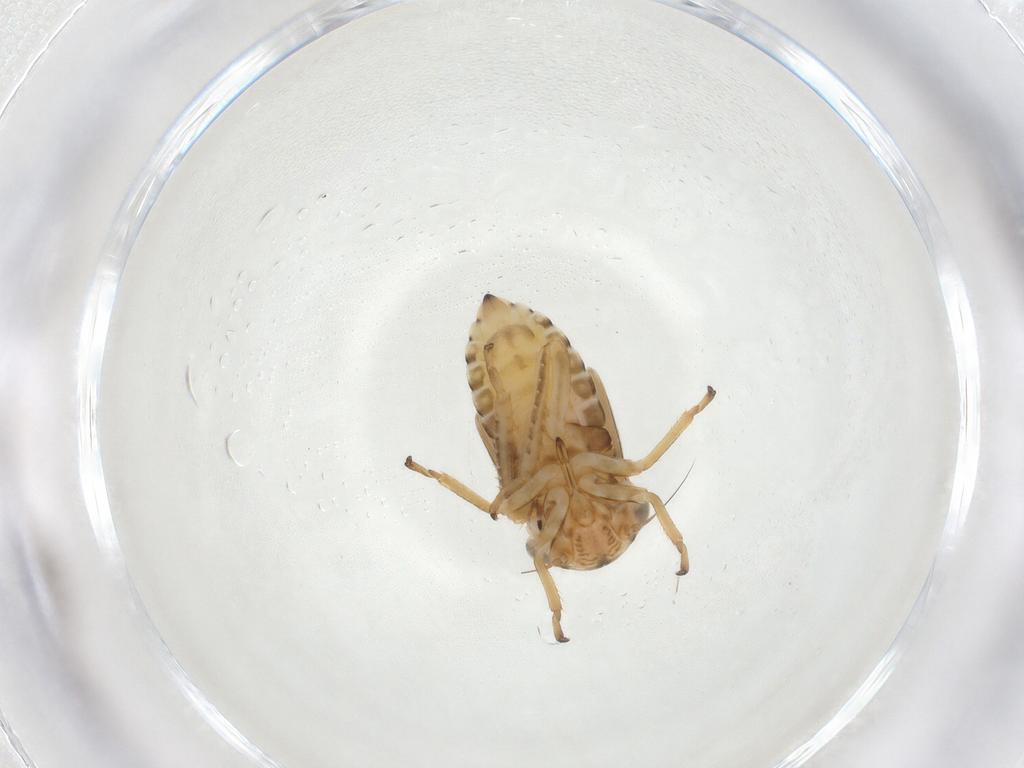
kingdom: Animalia
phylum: Arthropoda
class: Insecta
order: Hemiptera
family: Cicadellidae
